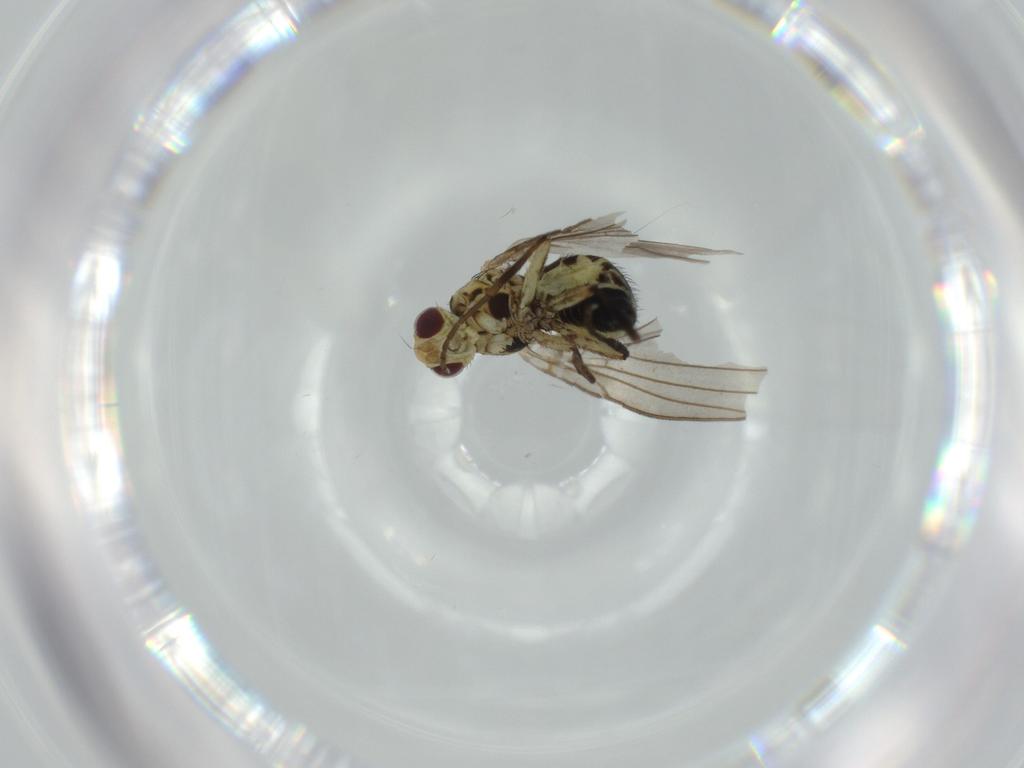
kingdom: Animalia
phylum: Arthropoda
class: Insecta
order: Diptera
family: Agromyzidae
